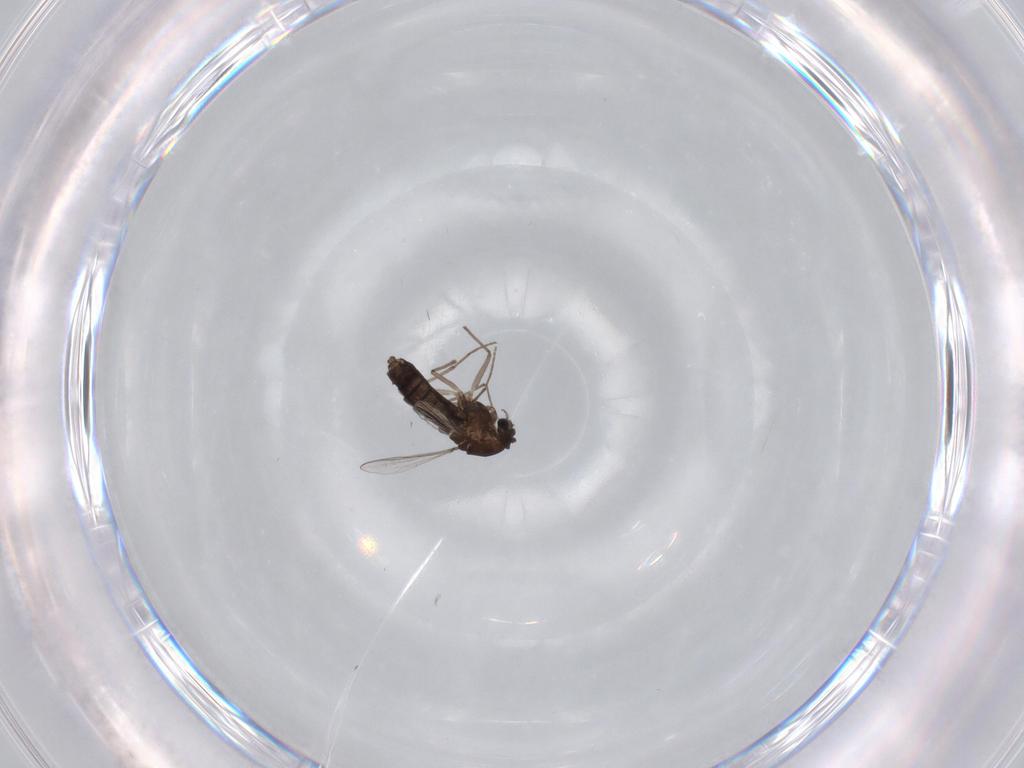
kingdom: Animalia
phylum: Arthropoda
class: Insecta
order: Diptera
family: Chironomidae
